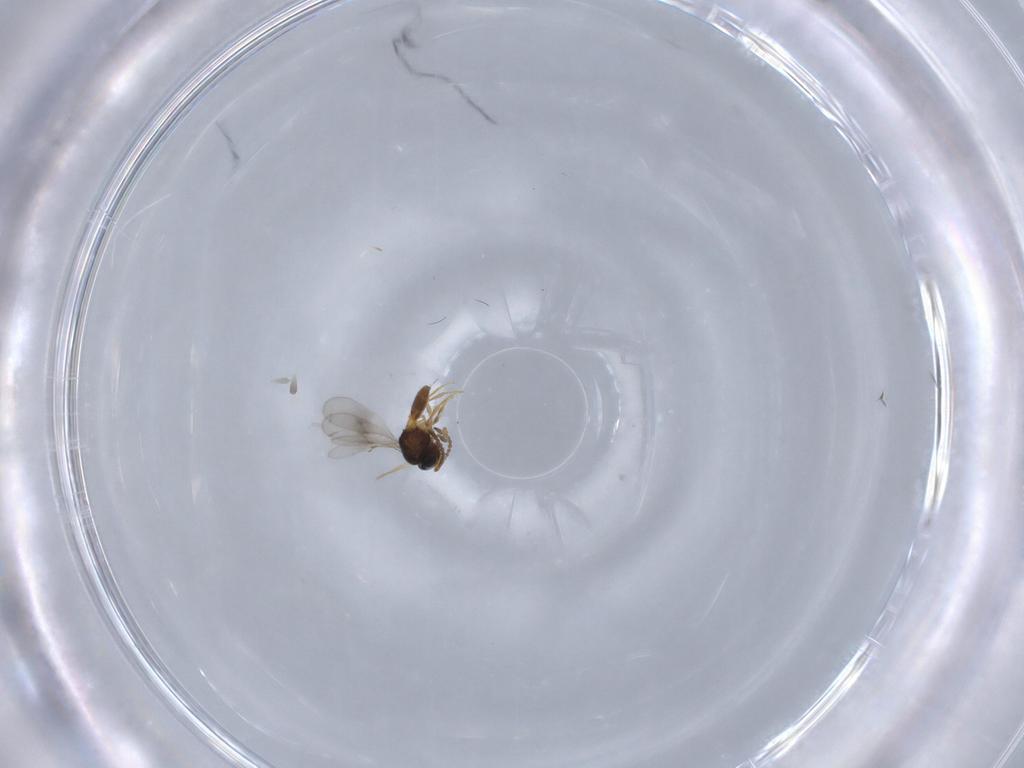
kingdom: Animalia
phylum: Arthropoda
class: Insecta
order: Hymenoptera
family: Scelionidae
